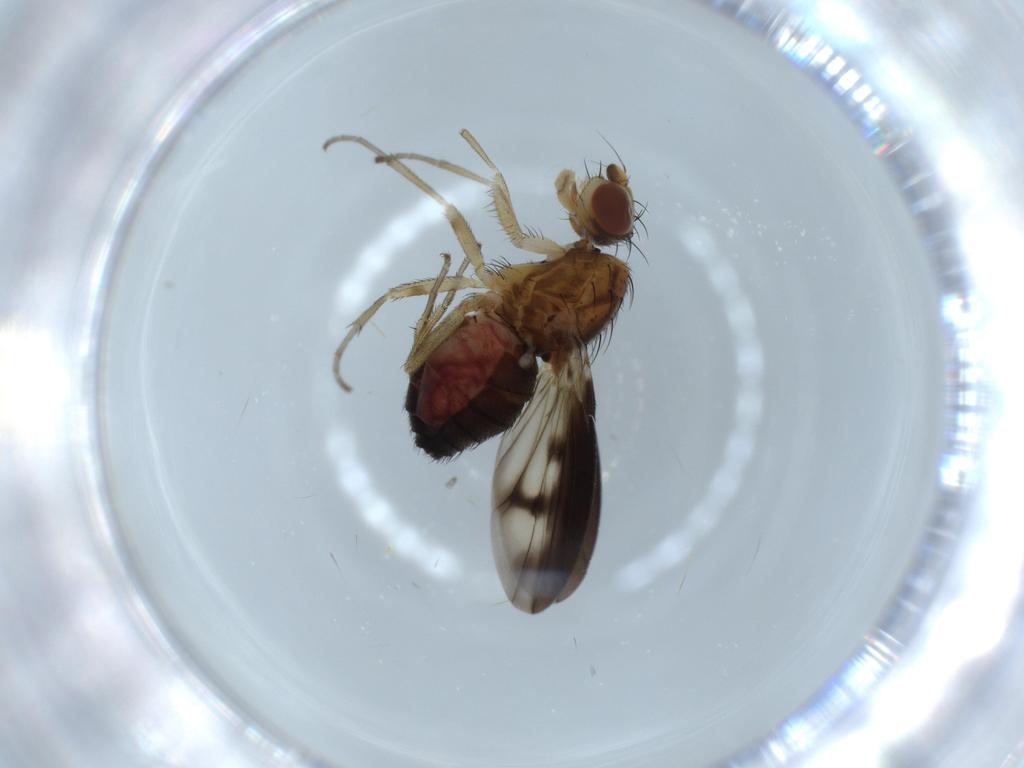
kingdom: Animalia
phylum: Arthropoda
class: Insecta
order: Diptera
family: Heleomyzidae
